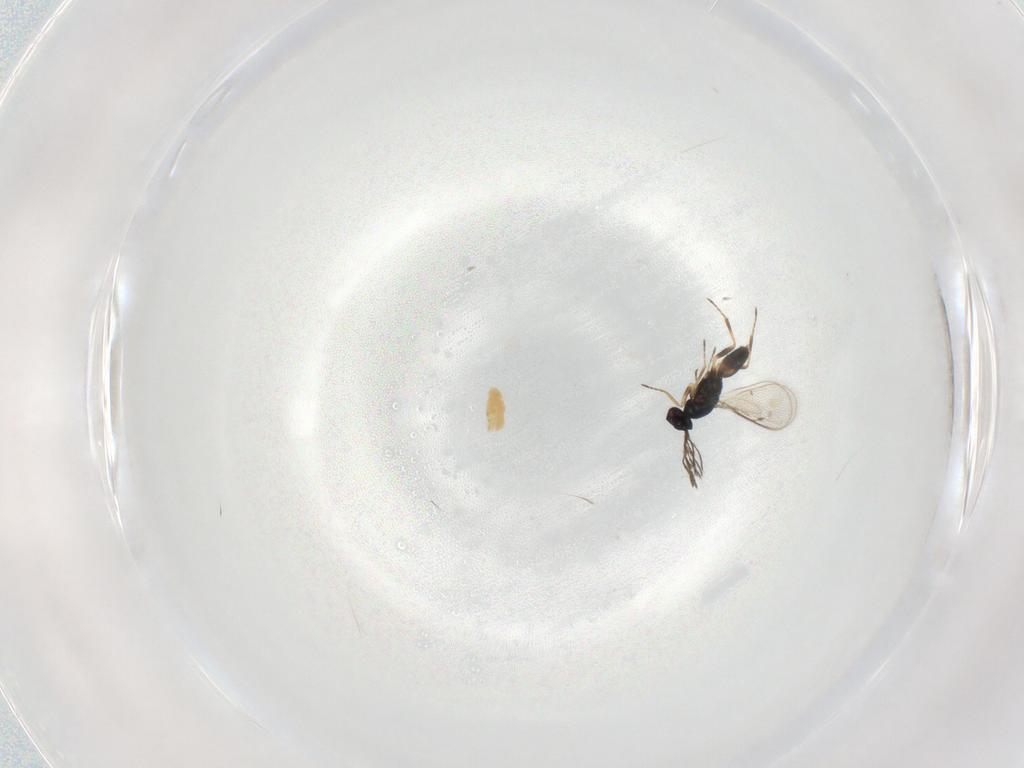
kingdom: Animalia
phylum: Arthropoda
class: Insecta
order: Hymenoptera
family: Eulophidae
